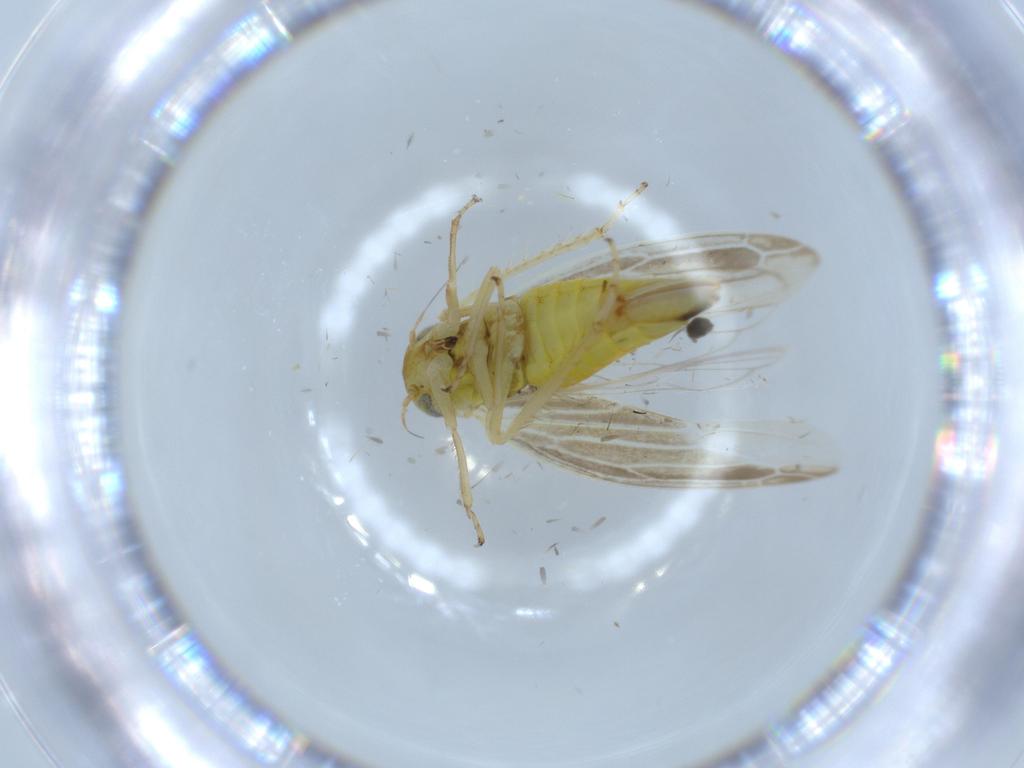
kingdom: Animalia
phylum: Arthropoda
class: Insecta
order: Hemiptera
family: Cicadellidae
